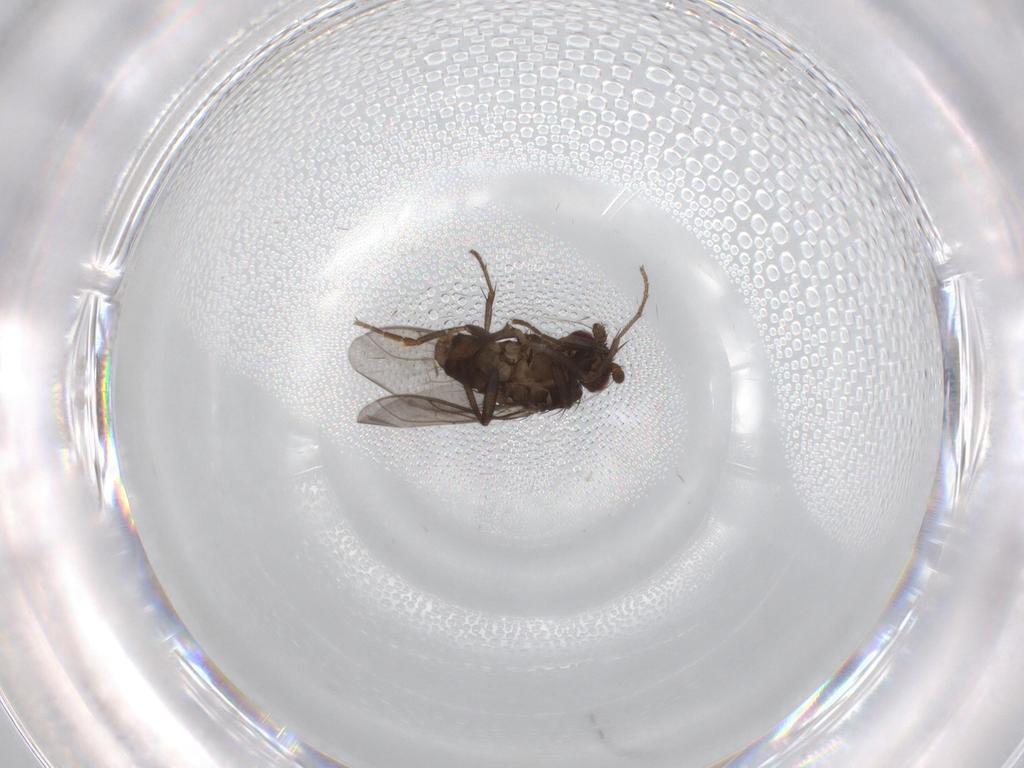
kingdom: Animalia
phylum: Arthropoda
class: Insecta
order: Diptera
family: Sphaeroceridae
